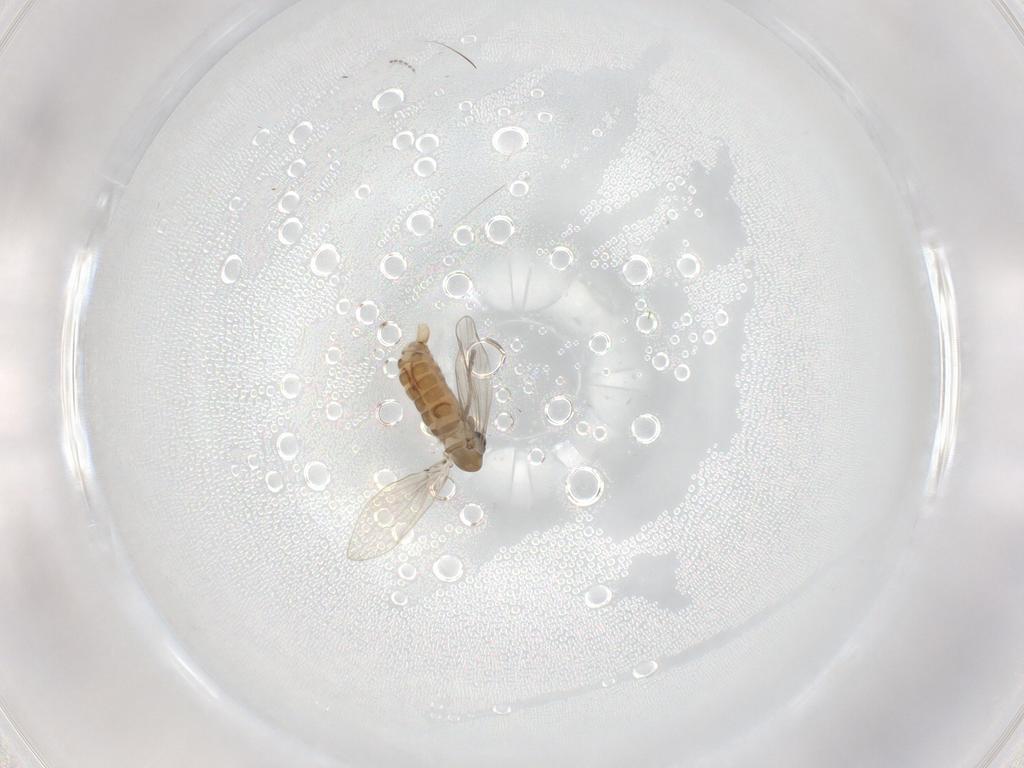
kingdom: Animalia
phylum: Arthropoda
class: Insecta
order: Diptera
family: Psychodidae
